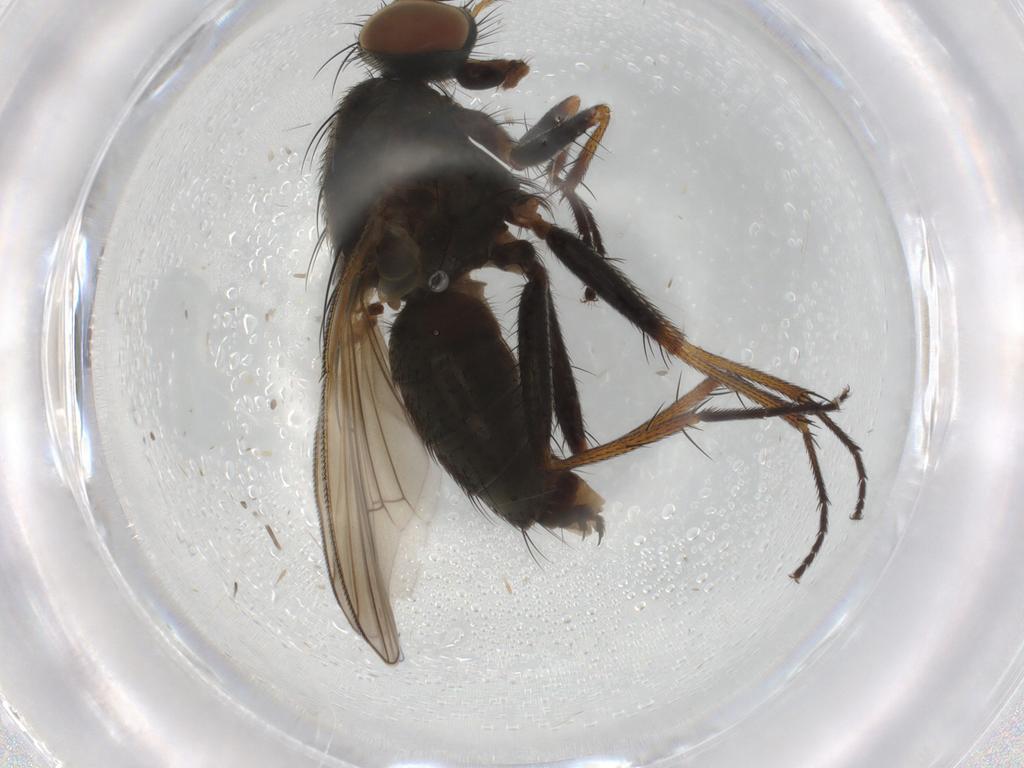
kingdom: Animalia
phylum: Arthropoda
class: Insecta
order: Diptera
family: Muscidae
